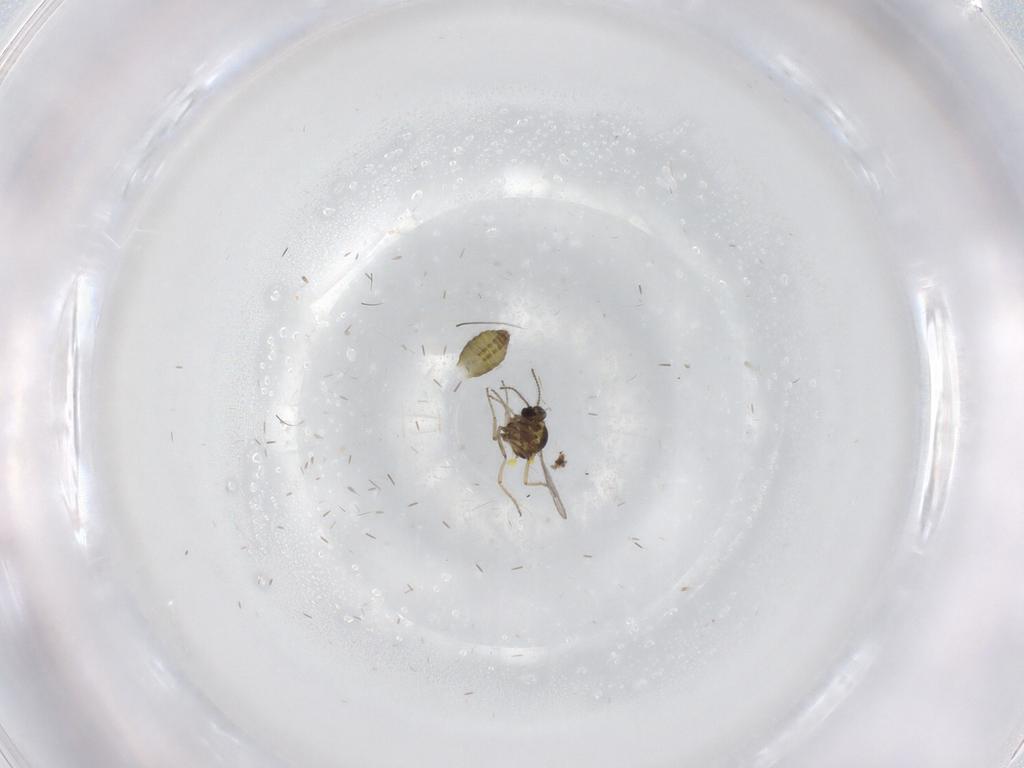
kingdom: Animalia
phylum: Arthropoda
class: Insecta
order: Diptera
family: Ceratopogonidae
